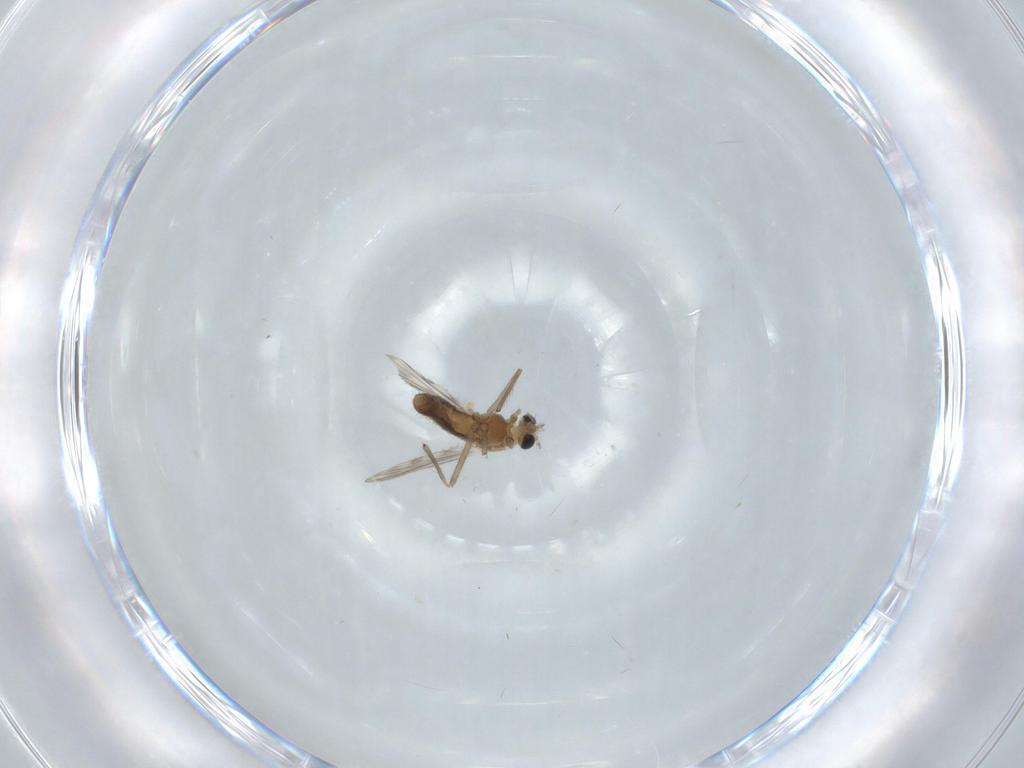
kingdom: Animalia
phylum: Arthropoda
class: Insecta
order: Diptera
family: Chironomidae
